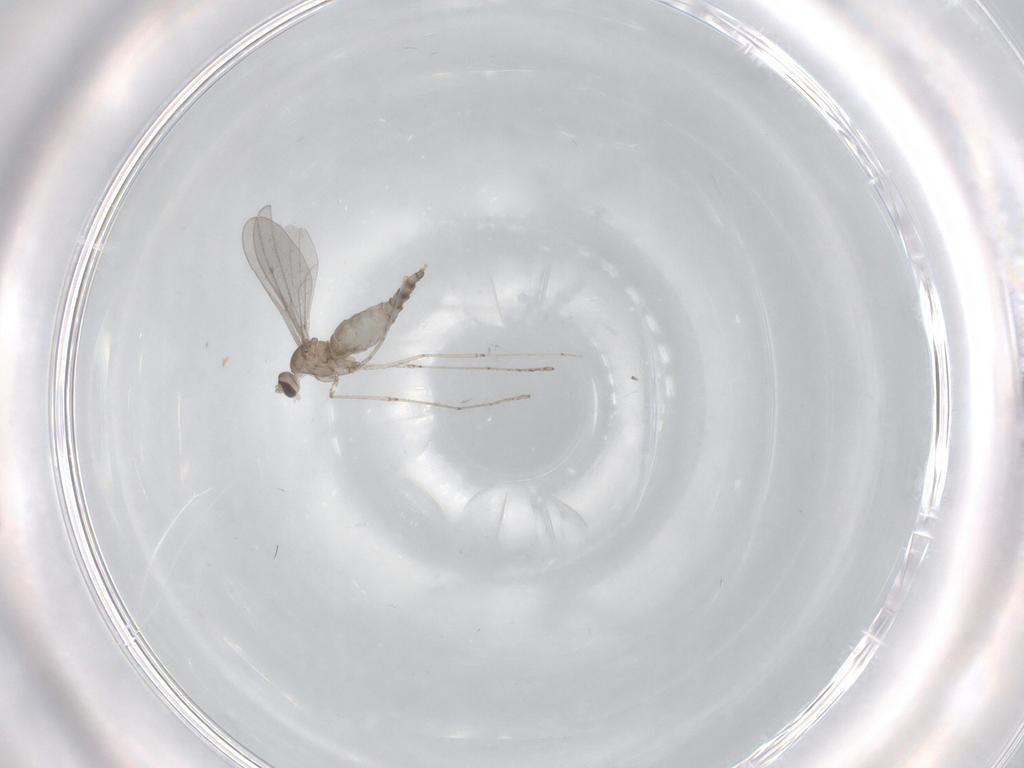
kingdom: Animalia
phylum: Arthropoda
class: Insecta
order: Diptera
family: Cecidomyiidae
